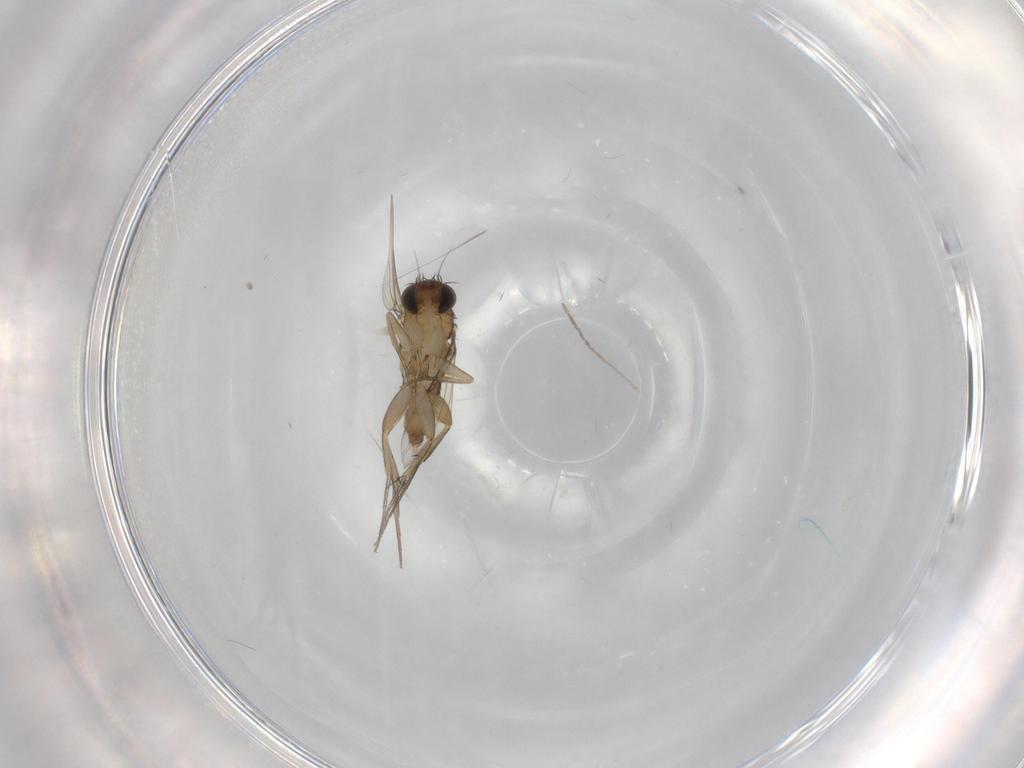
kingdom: Animalia
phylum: Arthropoda
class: Insecta
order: Diptera
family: Phoridae
